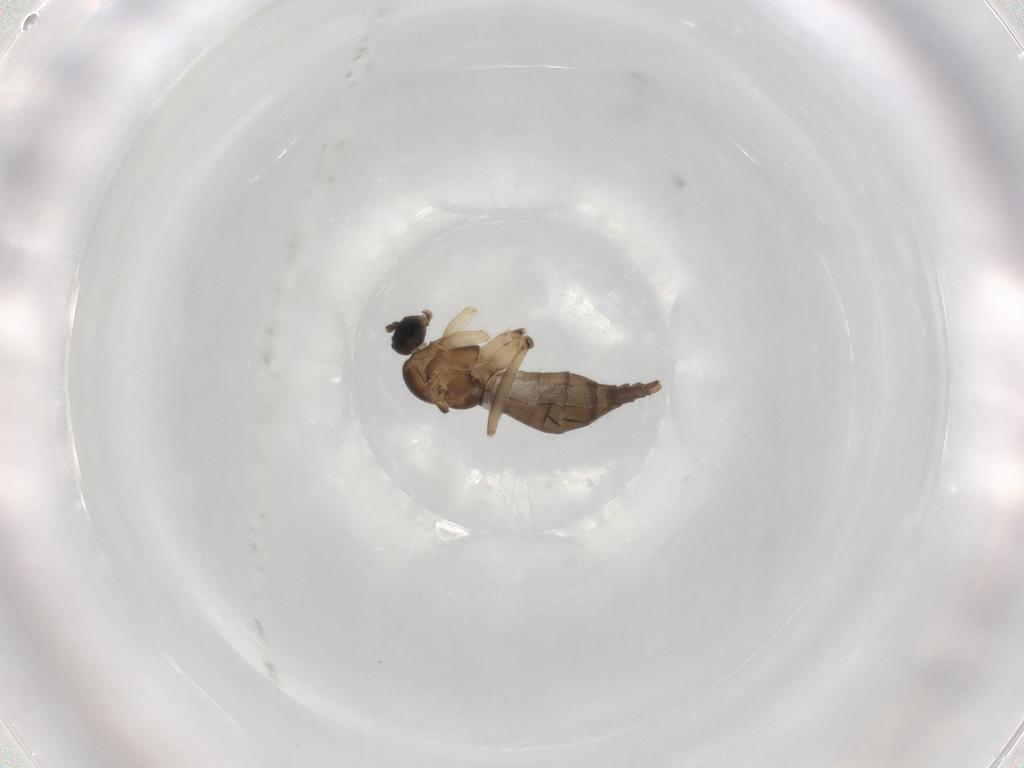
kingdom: Animalia
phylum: Arthropoda
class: Insecta
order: Diptera
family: Sciaridae
